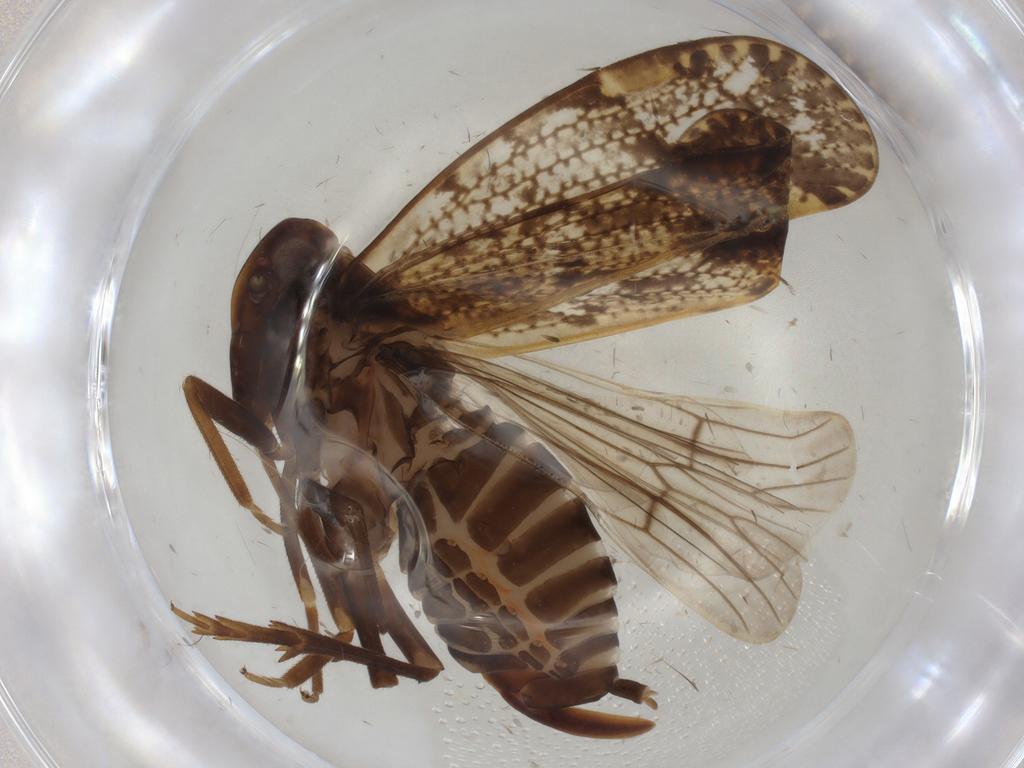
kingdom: Animalia
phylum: Arthropoda
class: Insecta
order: Hemiptera
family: Cixiidae
